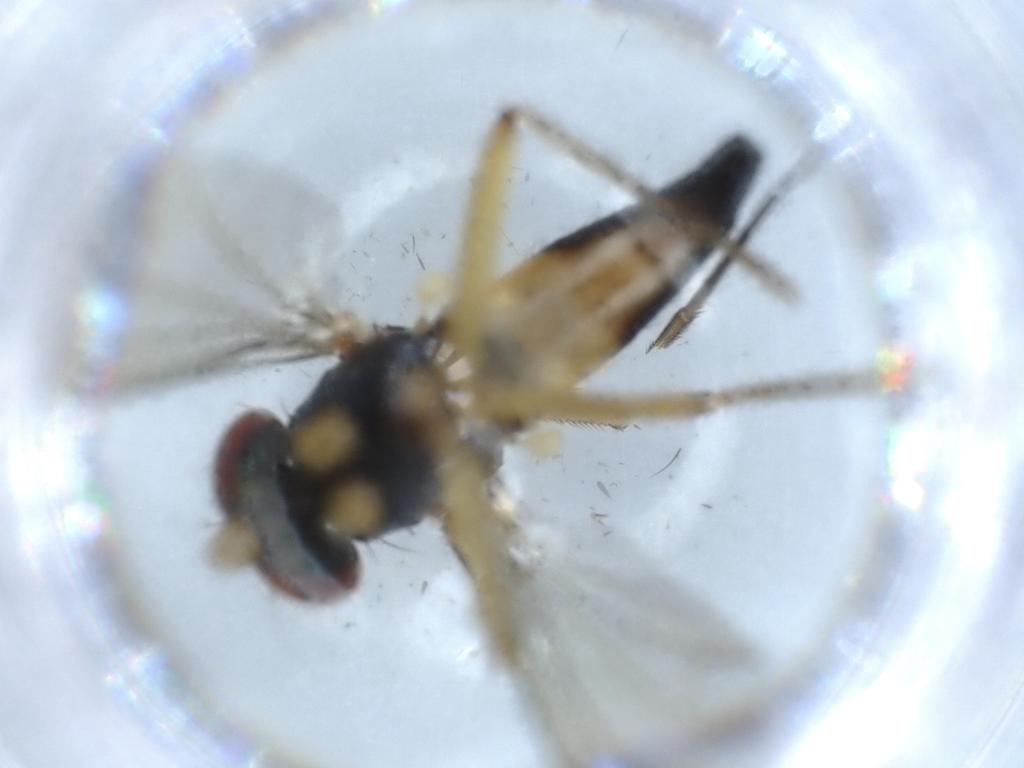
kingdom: Animalia
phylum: Arthropoda
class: Insecta
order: Diptera
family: Dolichopodidae
